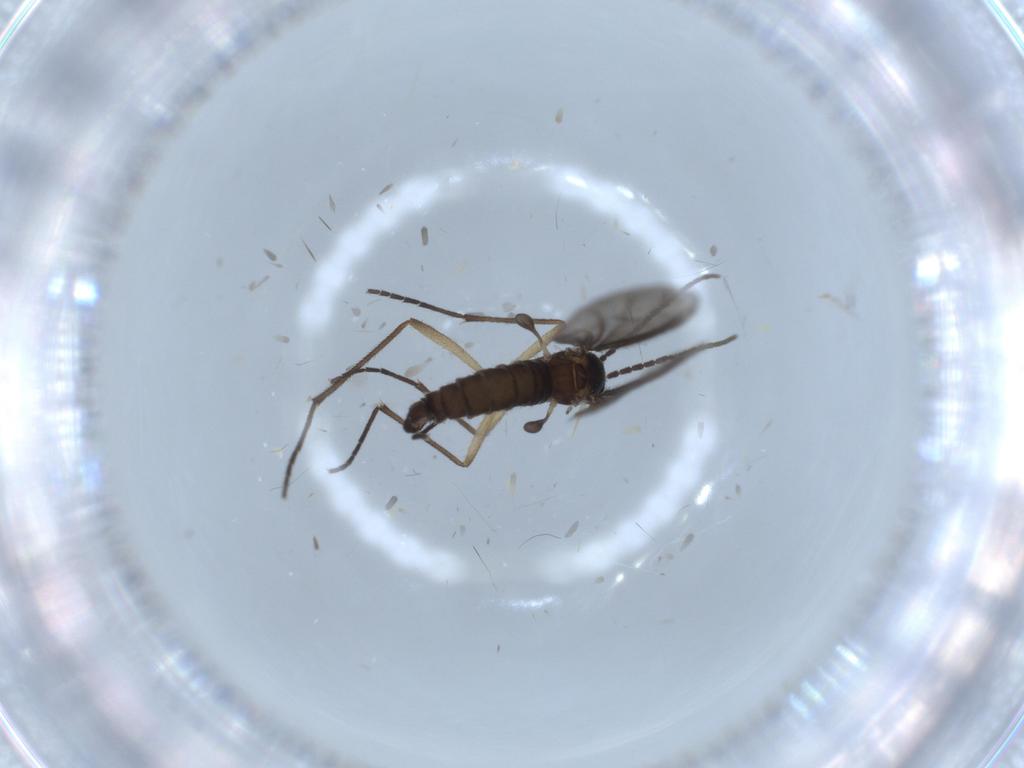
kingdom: Animalia
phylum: Arthropoda
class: Insecta
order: Diptera
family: Sciaridae
